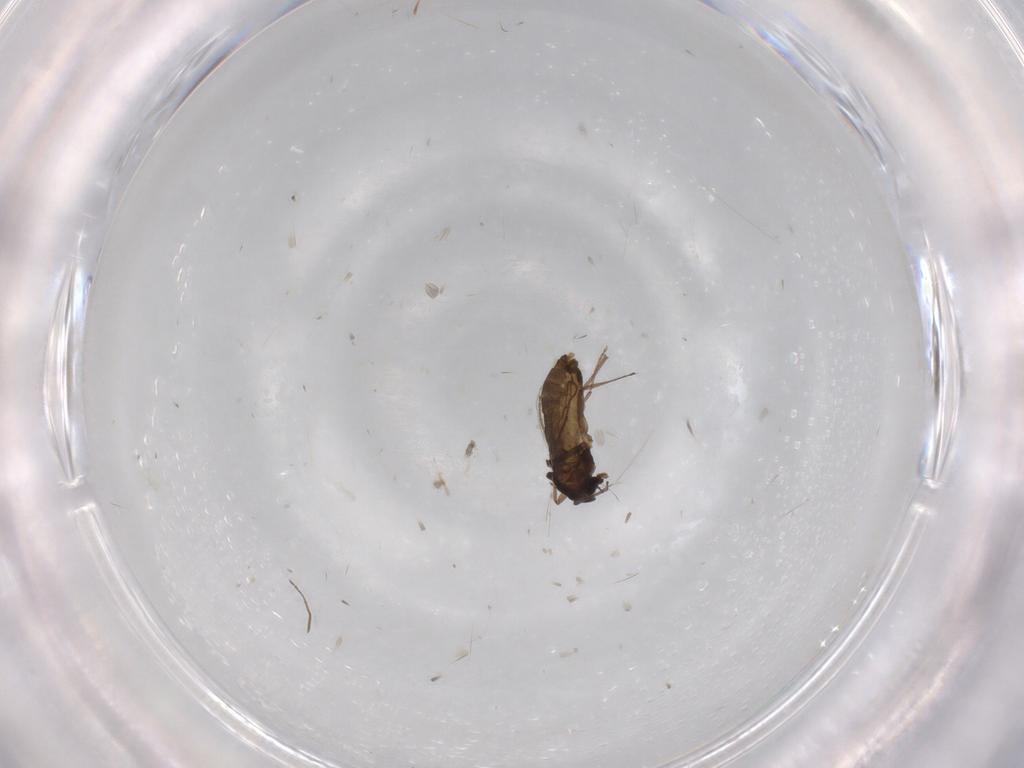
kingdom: Animalia
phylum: Arthropoda
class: Insecta
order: Diptera
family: Chironomidae
